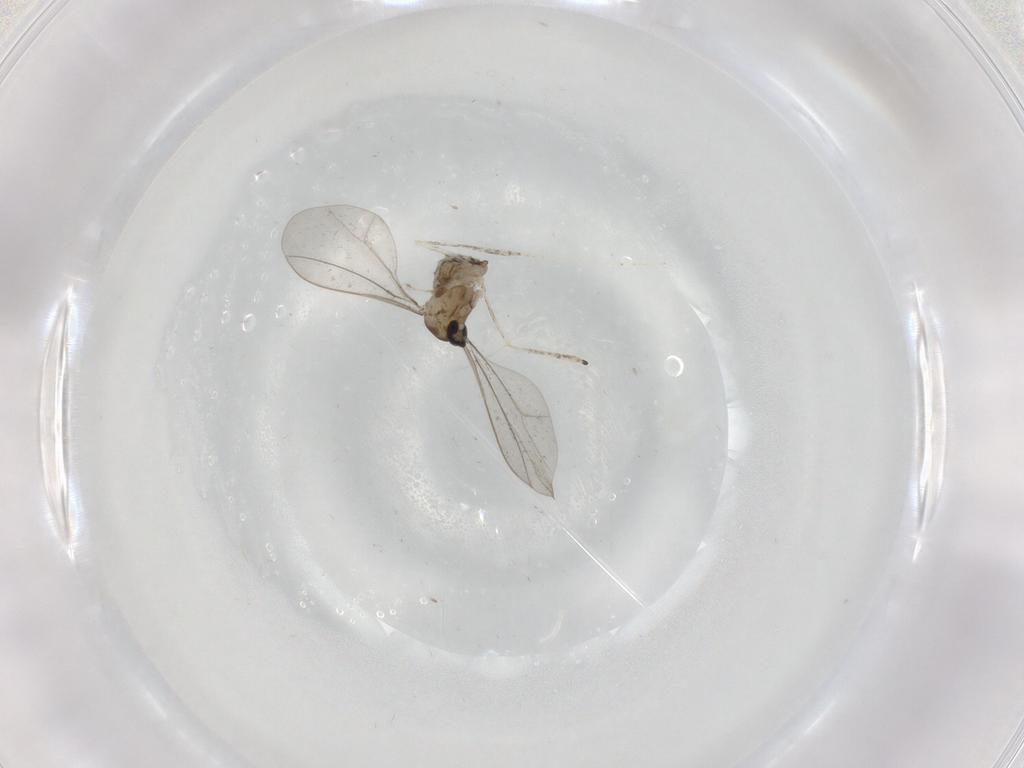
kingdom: Animalia
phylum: Arthropoda
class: Insecta
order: Diptera
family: Cecidomyiidae
